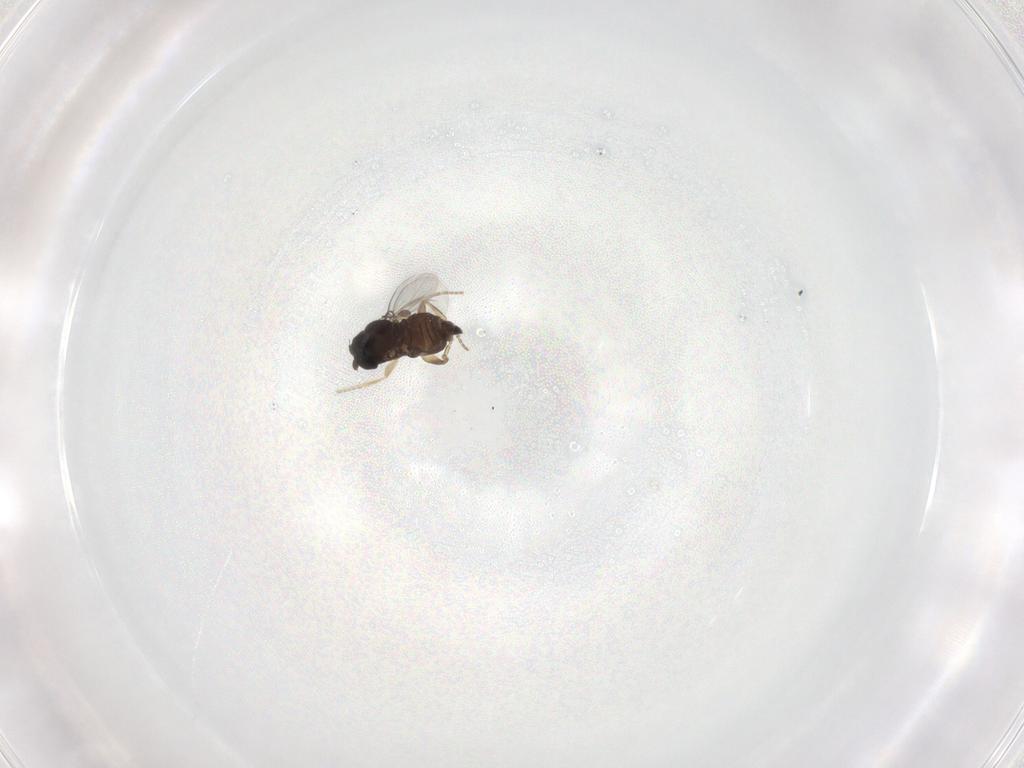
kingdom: Animalia
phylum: Arthropoda
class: Insecta
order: Diptera
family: Phoridae
